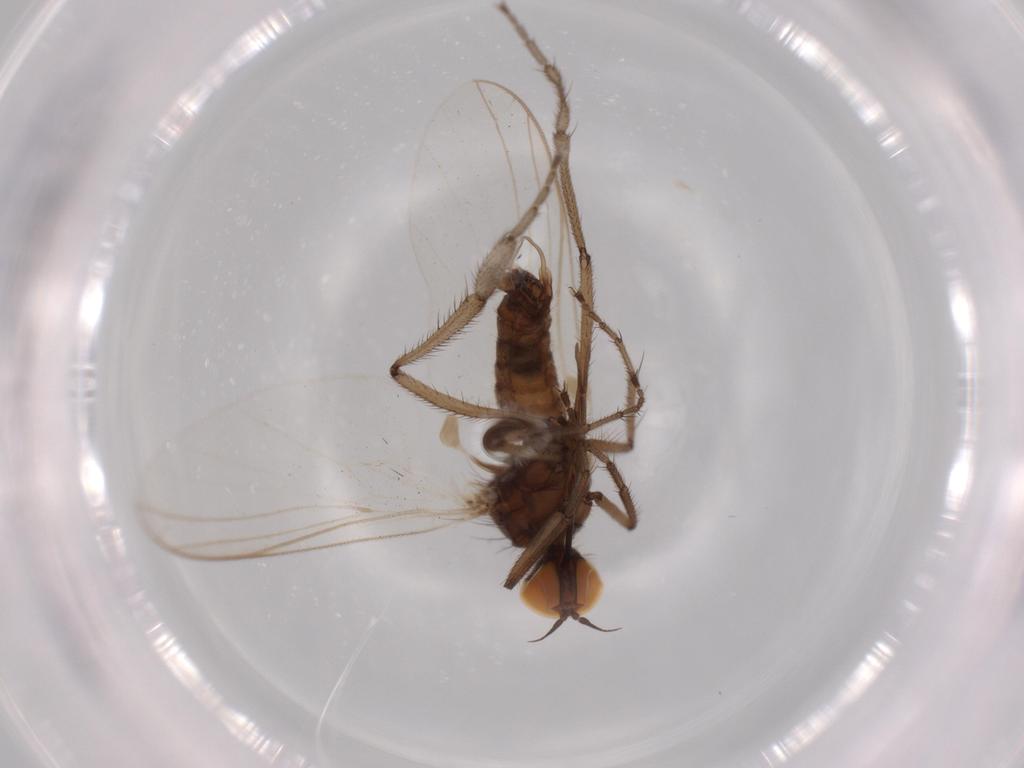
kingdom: Animalia
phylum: Arthropoda
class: Insecta
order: Diptera
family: Empididae
